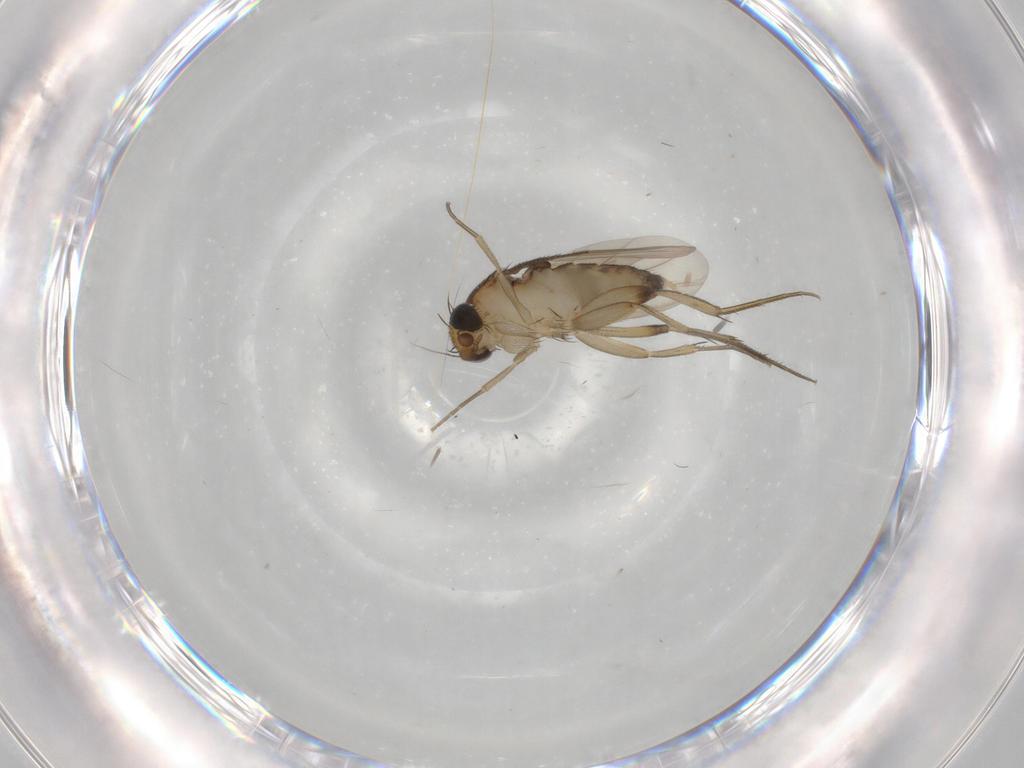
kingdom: Animalia
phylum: Arthropoda
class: Insecta
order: Diptera
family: Phoridae
